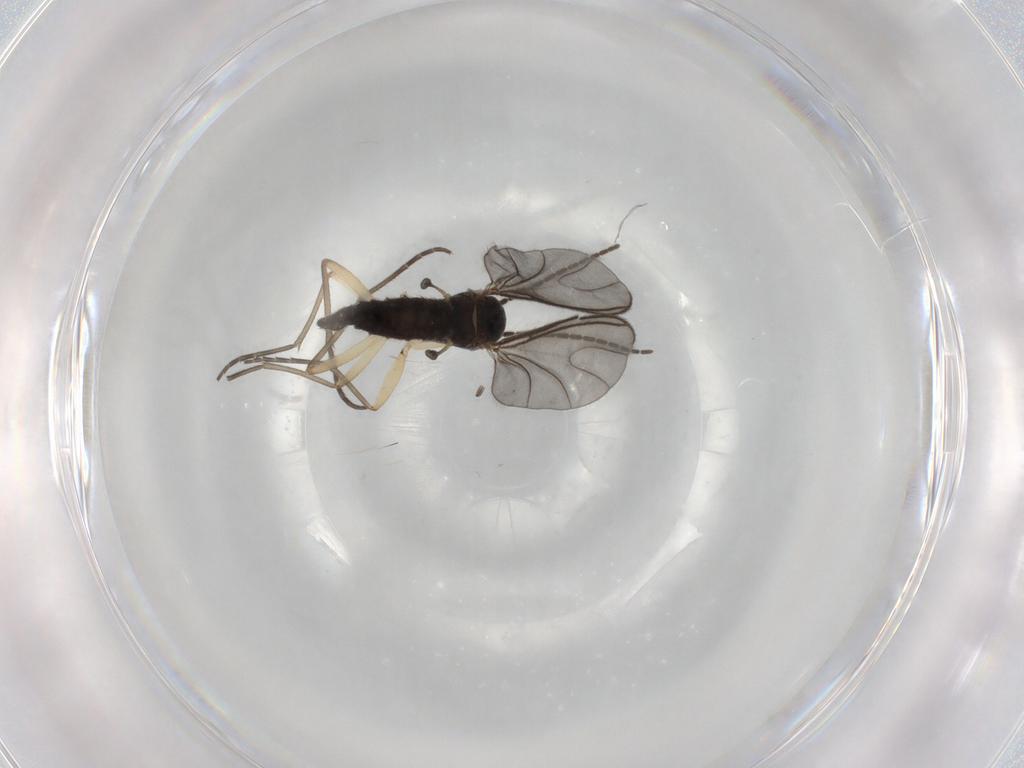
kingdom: Animalia
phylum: Arthropoda
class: Insecta
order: Diptera
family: Sciaridae
